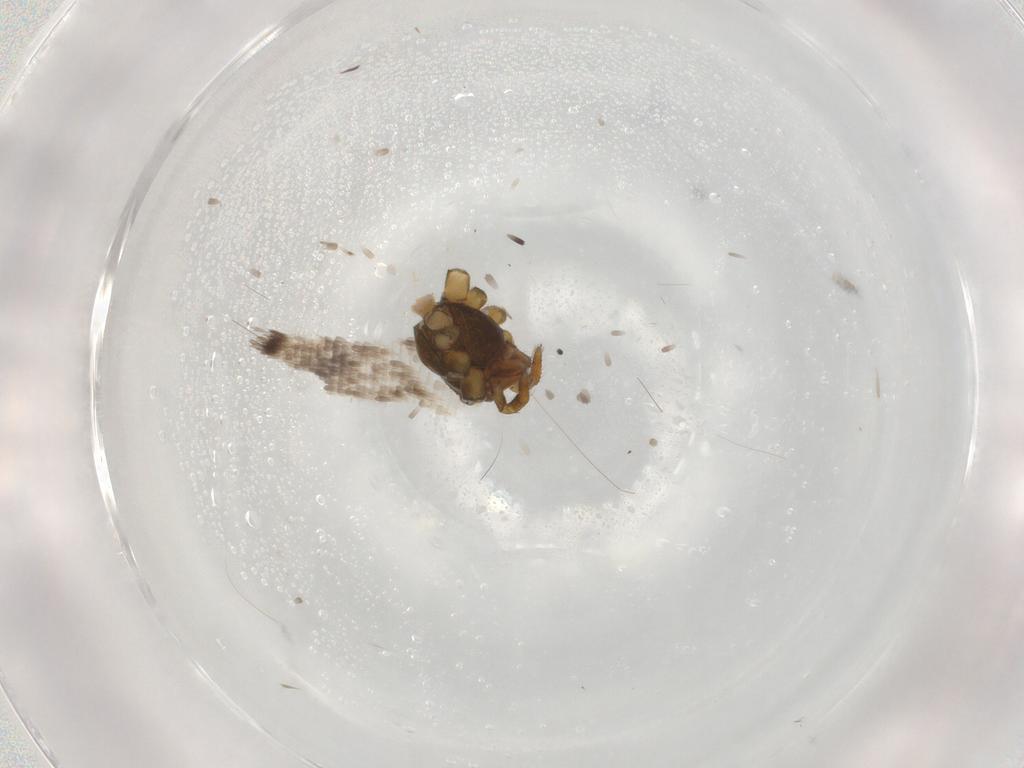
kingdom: Animalia
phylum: Arthropoda
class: Arachnida
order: Araneae
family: Theridiidae
